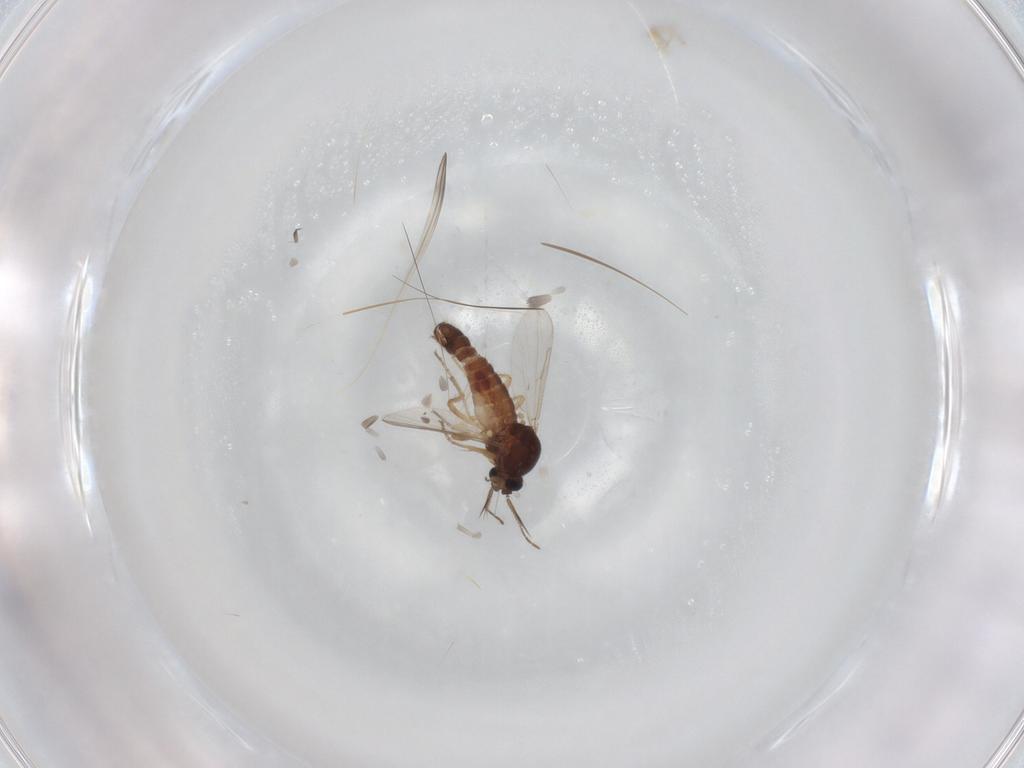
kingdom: Animalia
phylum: Arthropoda
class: Insecta
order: Diptera
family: Ceratopogonidae
